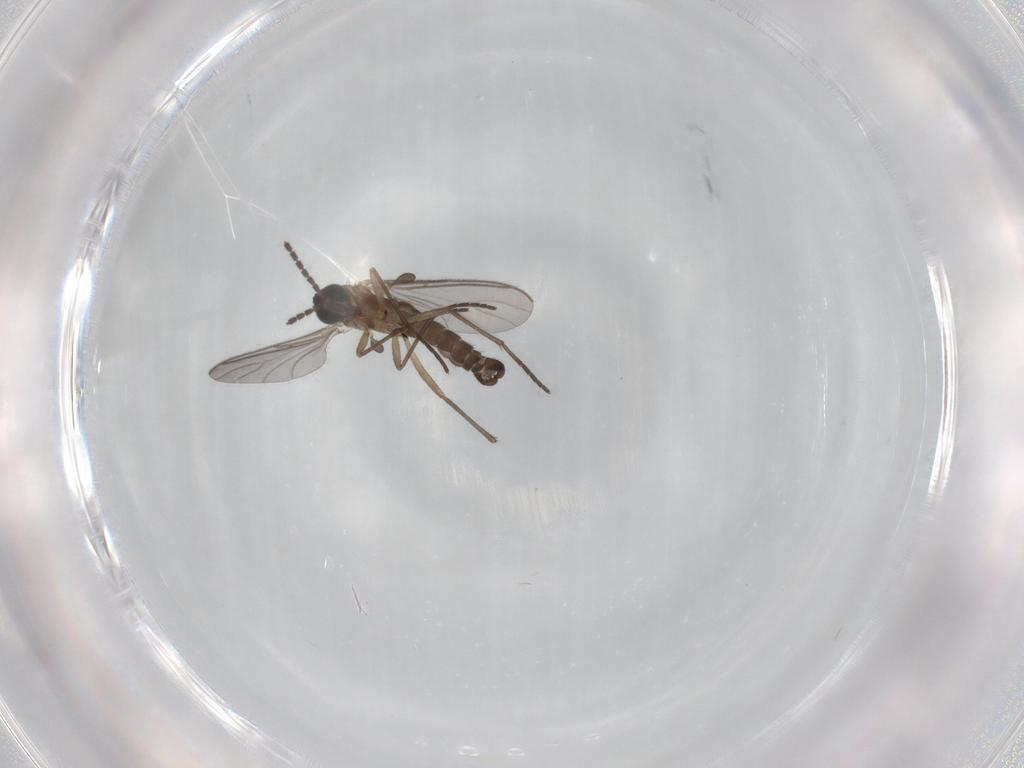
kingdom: Animalia
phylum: Arthropoda
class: Insecta
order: Diptera
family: Sciaridae
